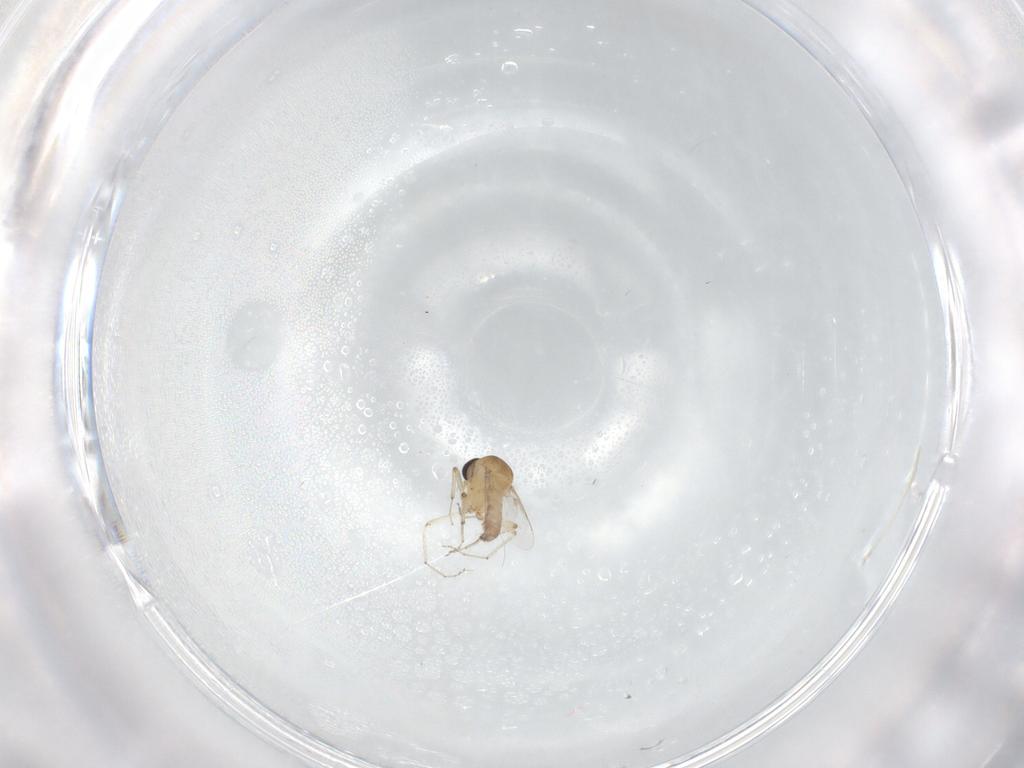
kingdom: Animalia
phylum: Arthropoda
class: Insecta
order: Diptera
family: Ceratopogonidae
